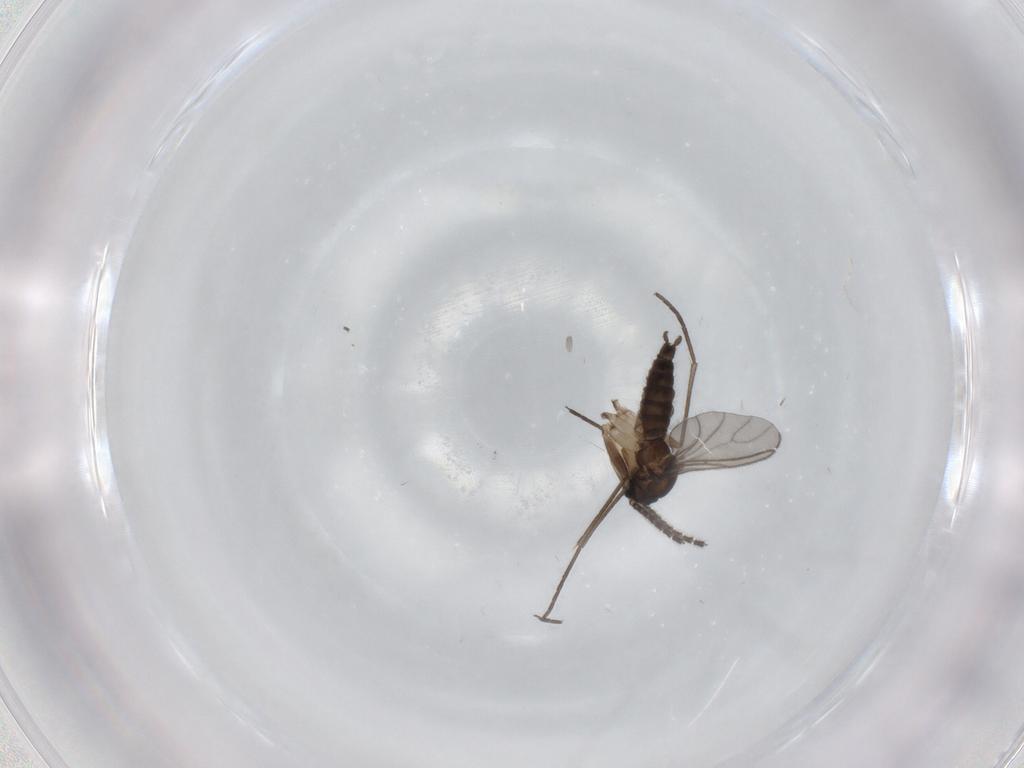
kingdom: Animalia
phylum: Arthropoda
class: Insecta
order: Diptera
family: Sciaridae
